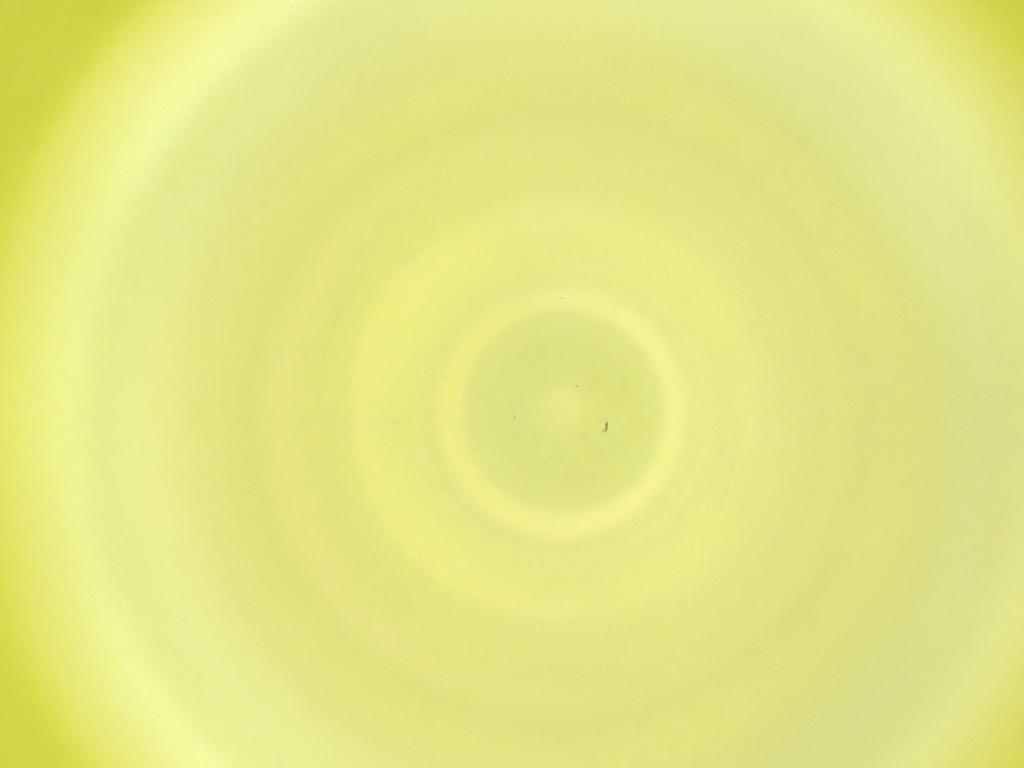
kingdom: Animalia
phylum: Arthropoda
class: Insecta
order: Diptera
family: Cecidomyiidae
